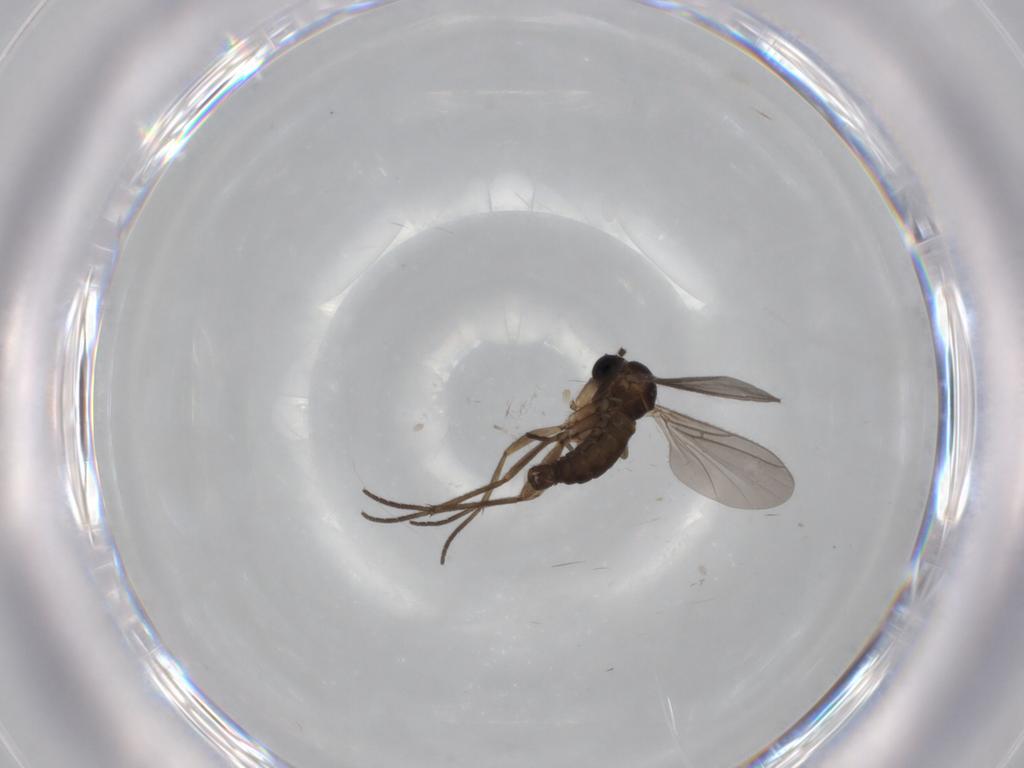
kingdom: Animalia
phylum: Arthropoda
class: Insecta
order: Diptera
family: Sciaridae
